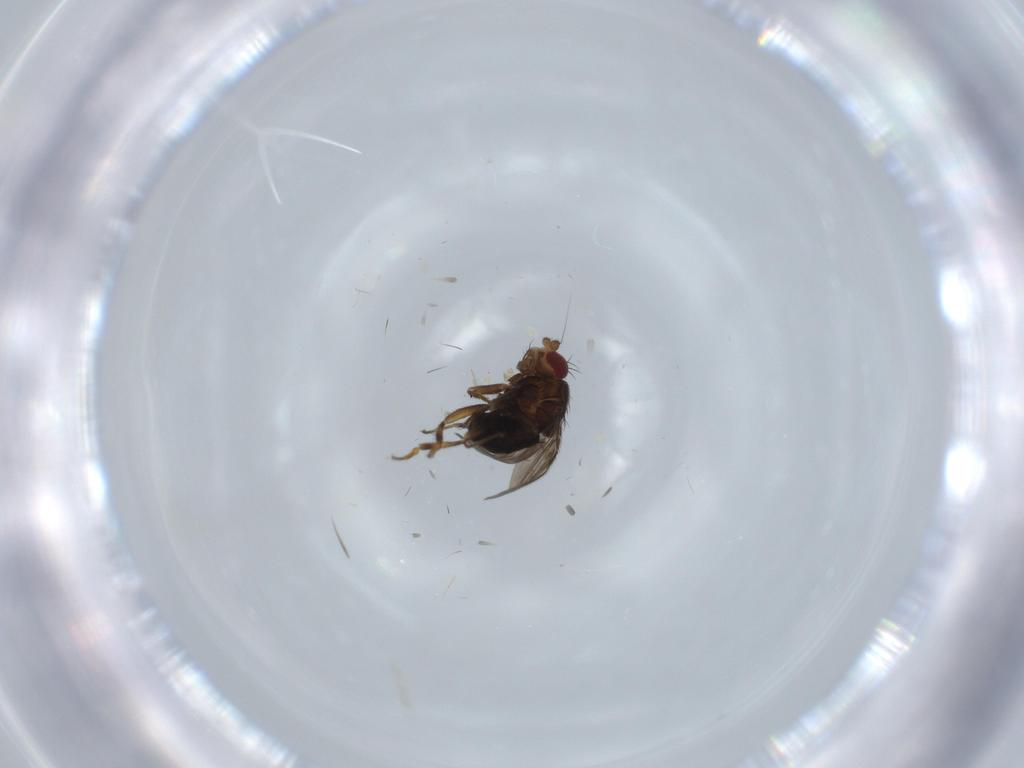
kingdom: Animalia
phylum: Arthropoda
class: Insecta
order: Diptera
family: Sphaeroceridae
